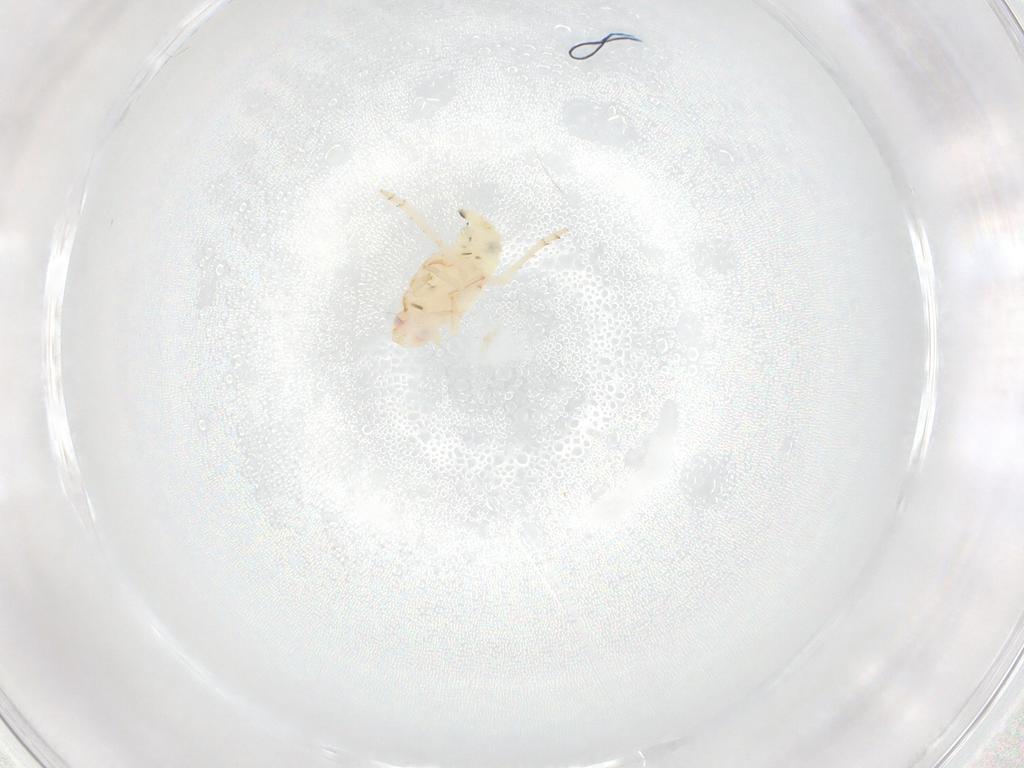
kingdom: Animalia
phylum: Arthropoda
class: Insecta
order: Hemiptera
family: Flatidae
